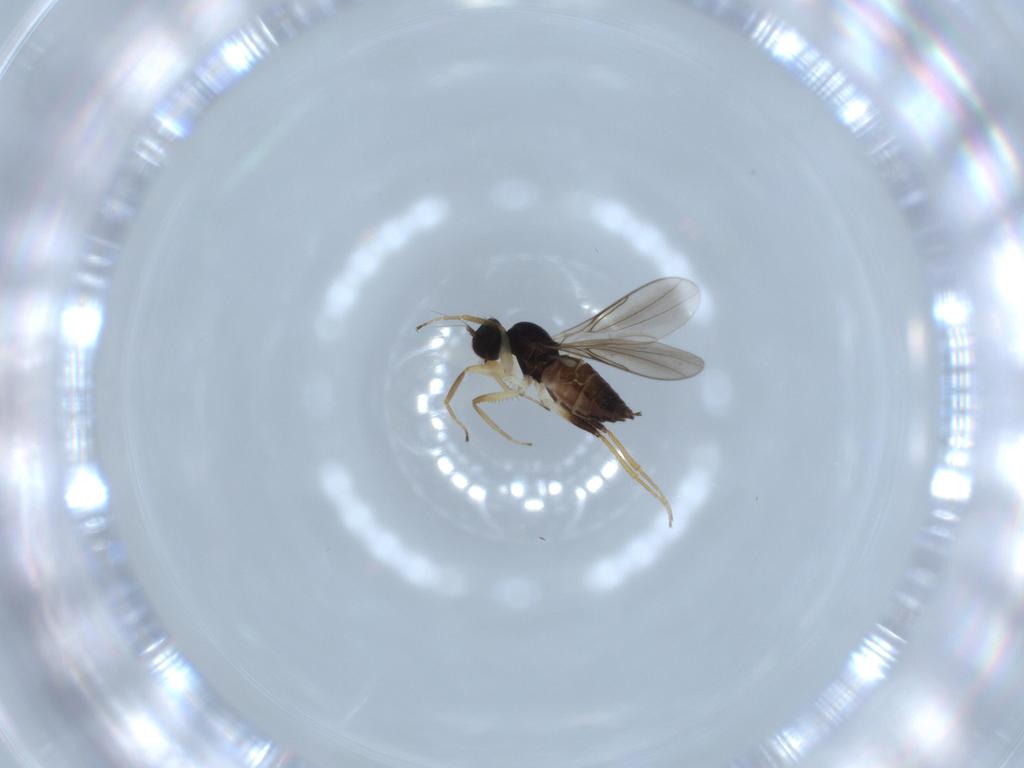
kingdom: Animalia
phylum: Arthropoda
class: Insecta
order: Diptera
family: Hybotidae
